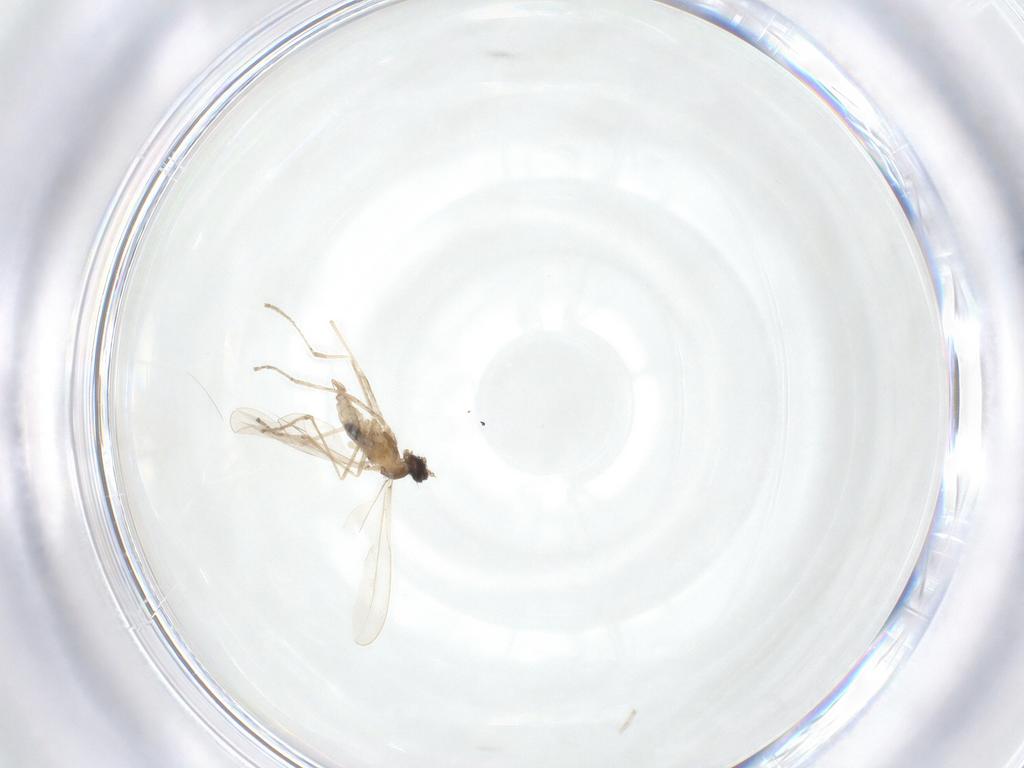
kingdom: Animalia
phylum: Arthropoda
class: Insecta
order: Diptera
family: Cecidomyiidae
